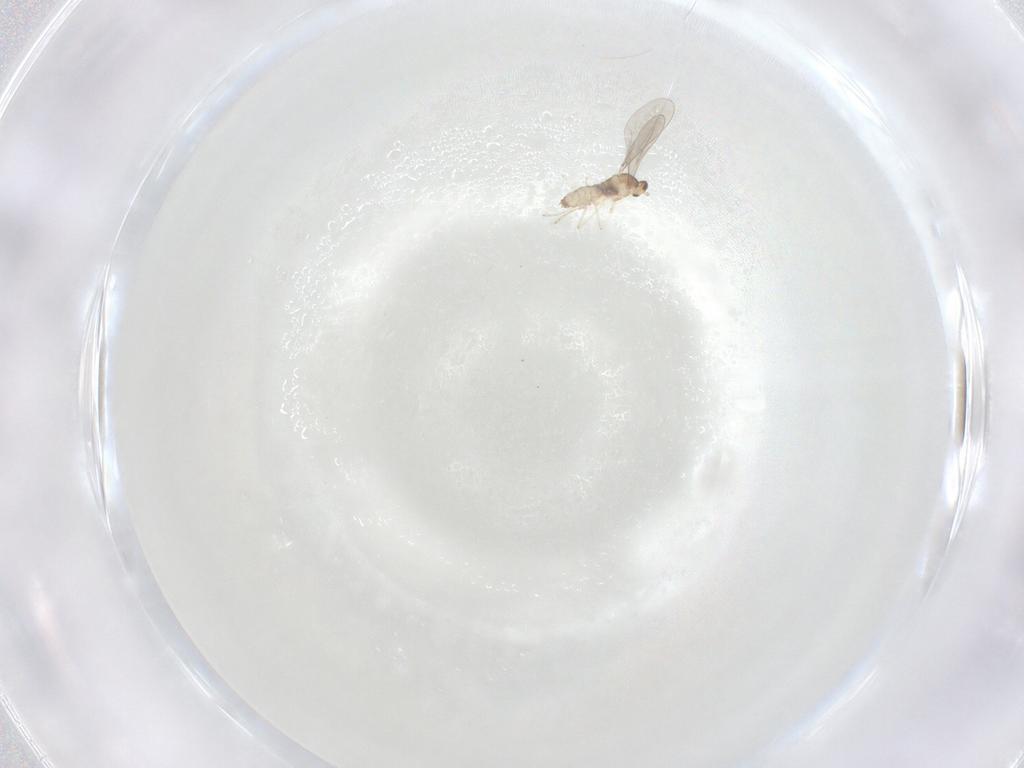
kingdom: Animalia
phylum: Arthropoda
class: Insecta
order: Diptera
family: Cecidomyiidae
